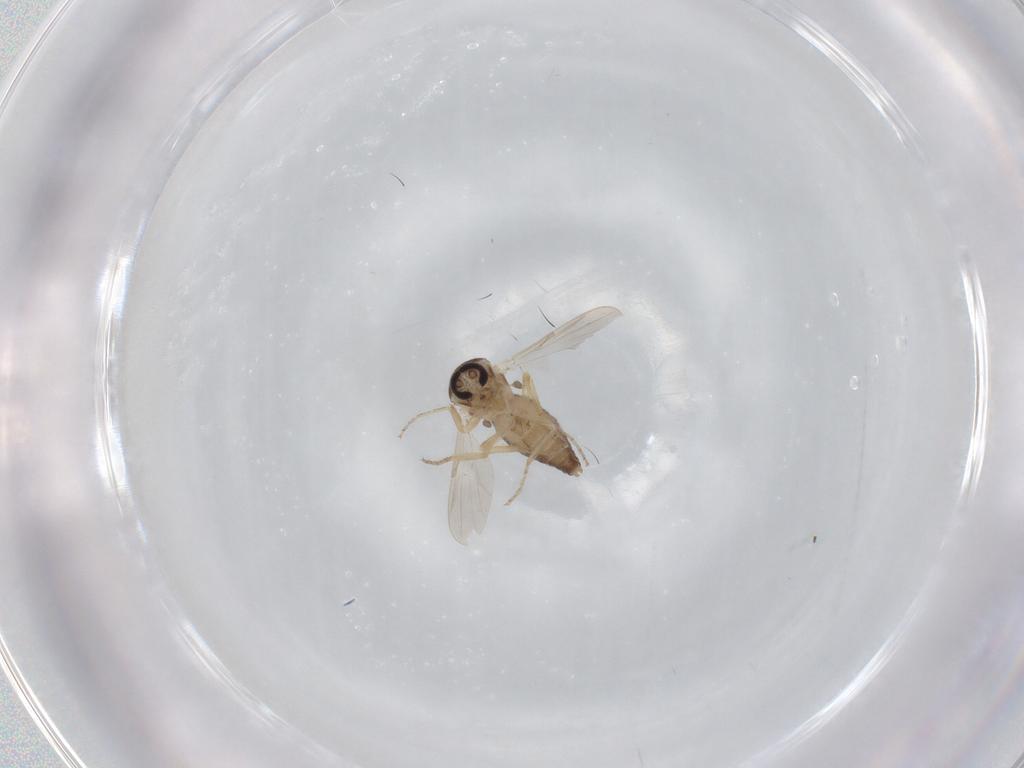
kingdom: Animalia
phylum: Arthropoda
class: Insecta
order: Diptera
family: Ceratopogonidae
